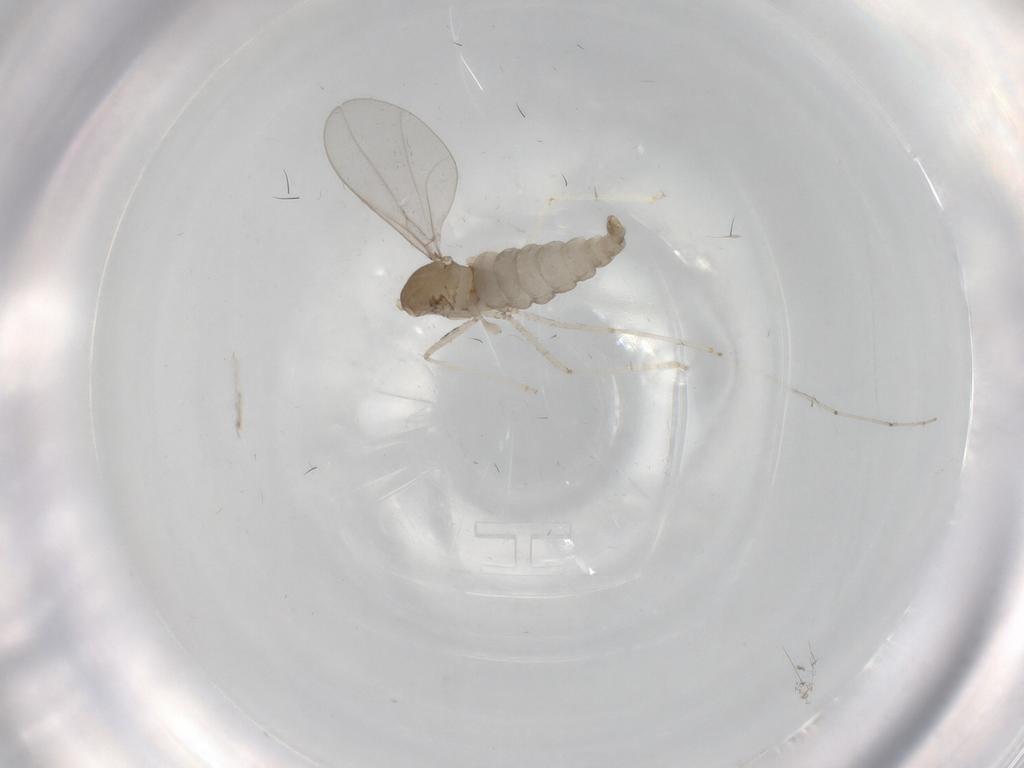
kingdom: Animalia
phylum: Arthropoda
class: Insecta
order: Diptera
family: Cecidomyiidae
